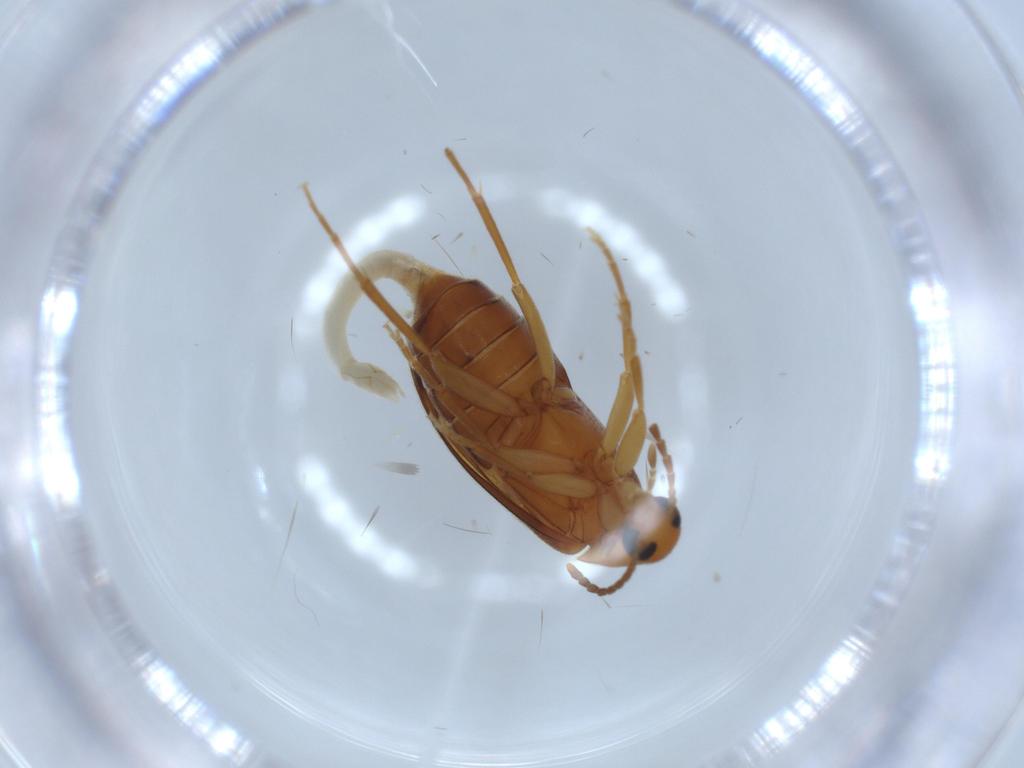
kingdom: Animalia
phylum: Arthropoda
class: Insecta
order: Coleoptera
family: Scraptiidae
